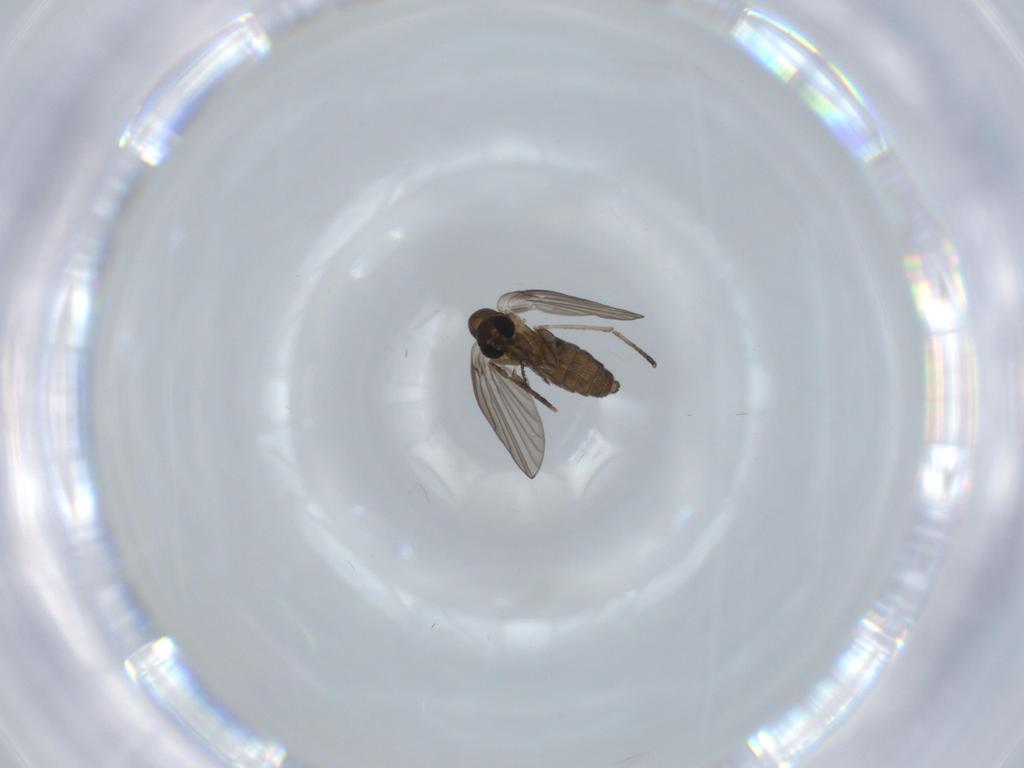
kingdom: Animalia
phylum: Arthropoda
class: Insecta
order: Diptera
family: Psychodidae
